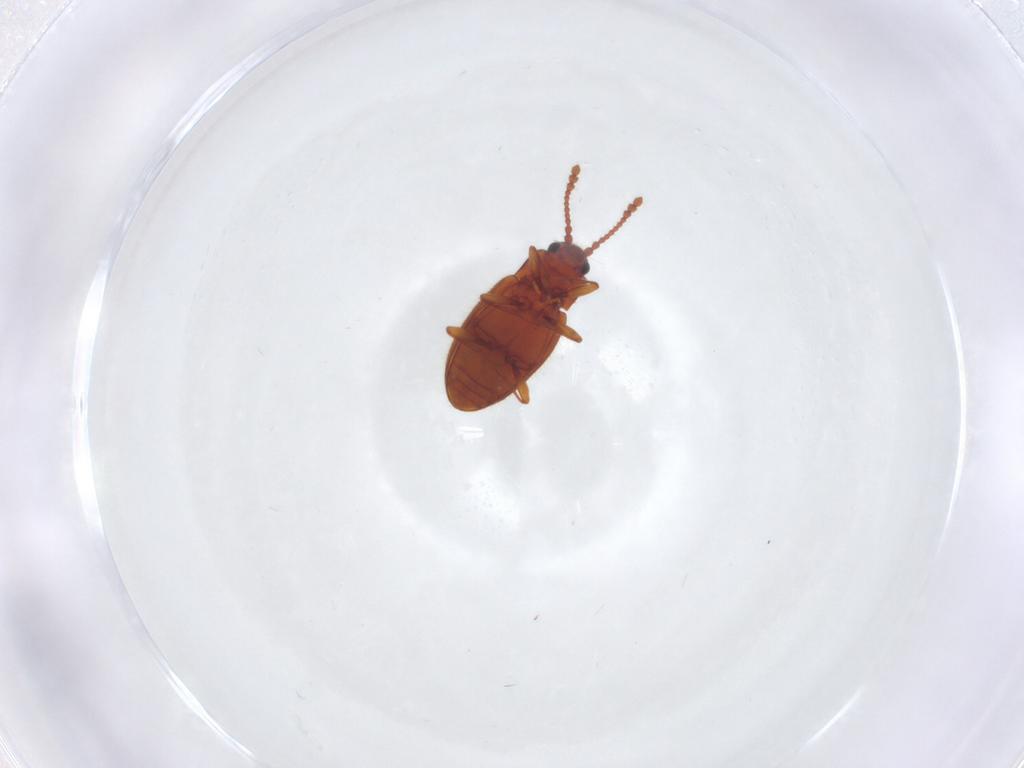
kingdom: Animalia
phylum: Arthropoda
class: Insecta
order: Coleoptera
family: Cryptophagidae
